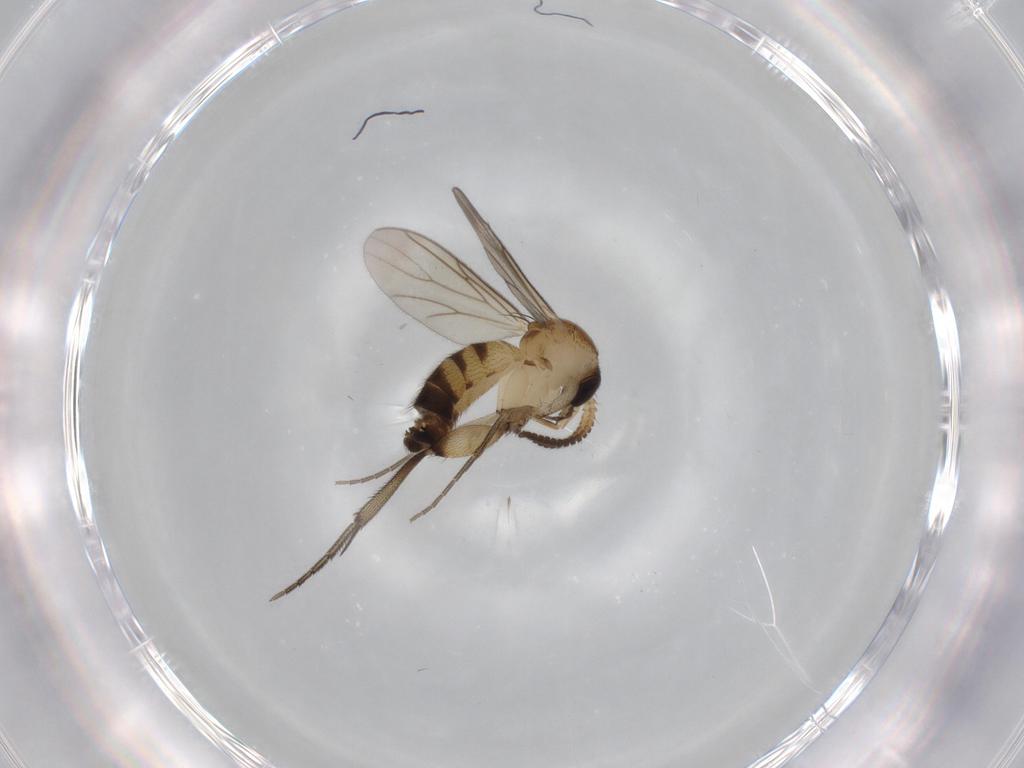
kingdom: Animalia
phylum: Arthropoda
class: Insecta
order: Diptera
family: Mycetophilidae
